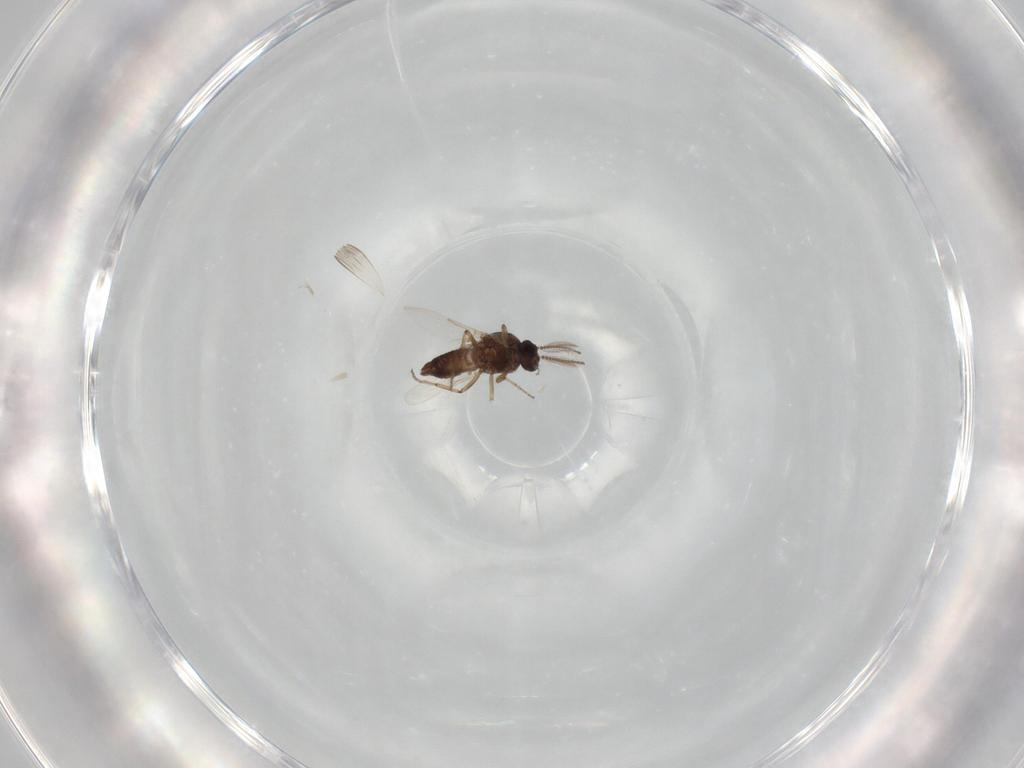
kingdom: Animalia
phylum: Arthropoda
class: Insecta
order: Diptera
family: Ceratopogonidae
